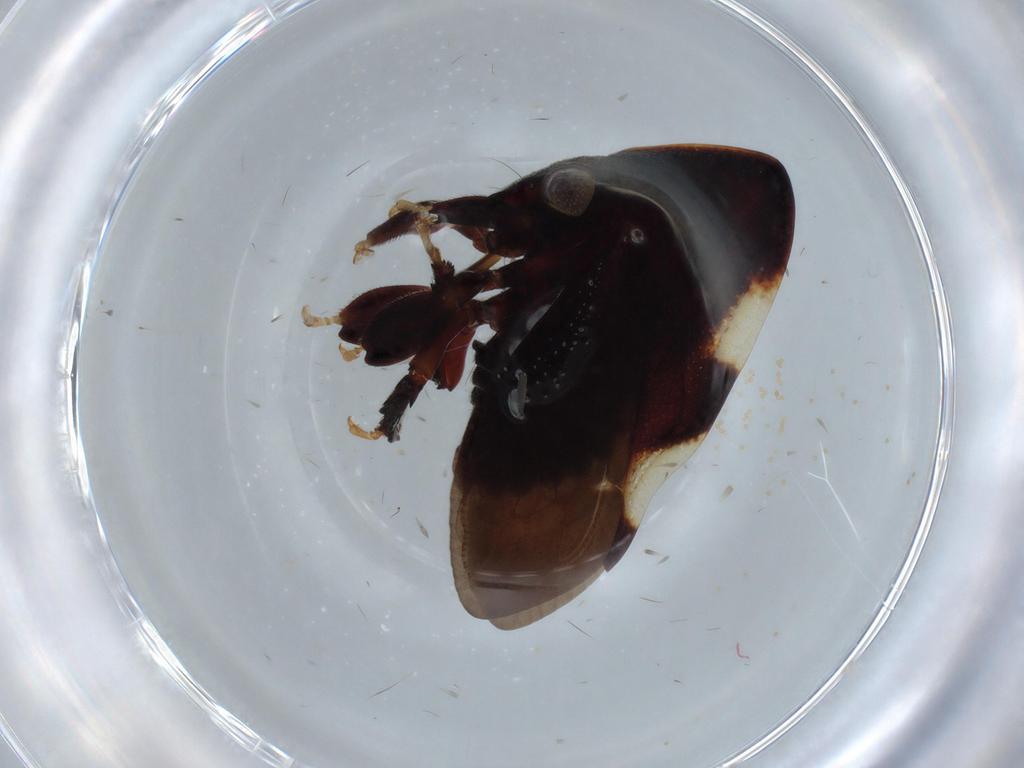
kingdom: Animalia
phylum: Arthropoda
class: Insecta
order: Hemiptera
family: Membracidae
